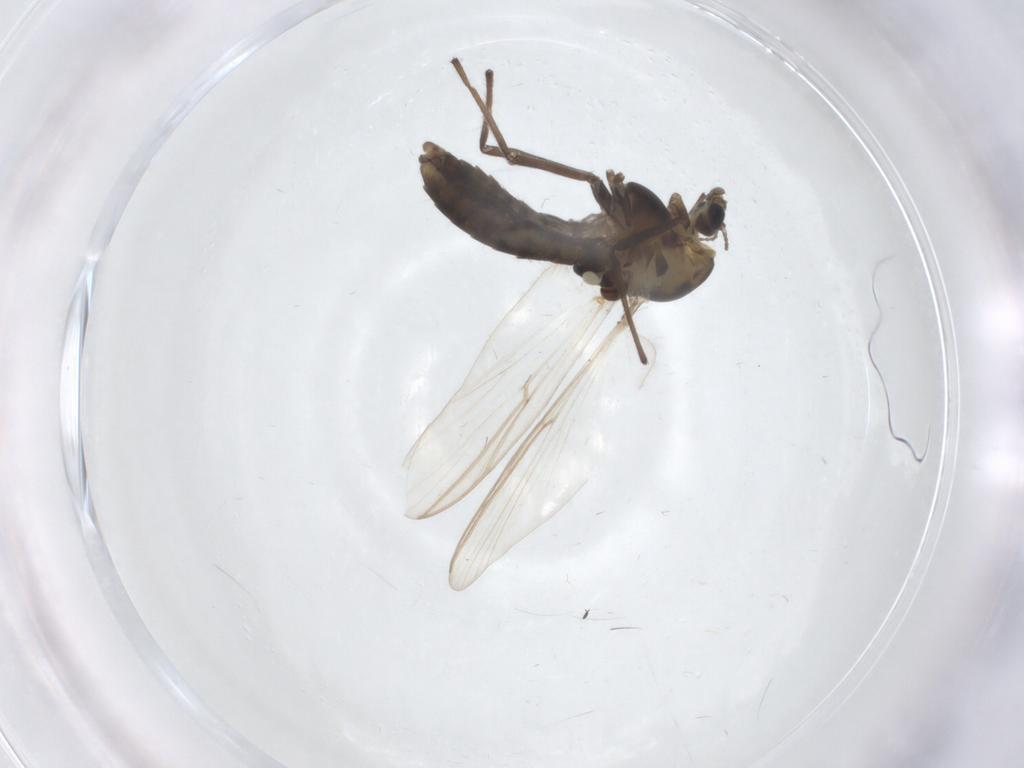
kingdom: Animalia
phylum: Arthropoda
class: Insecta
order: Diptera
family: Chironomidae
